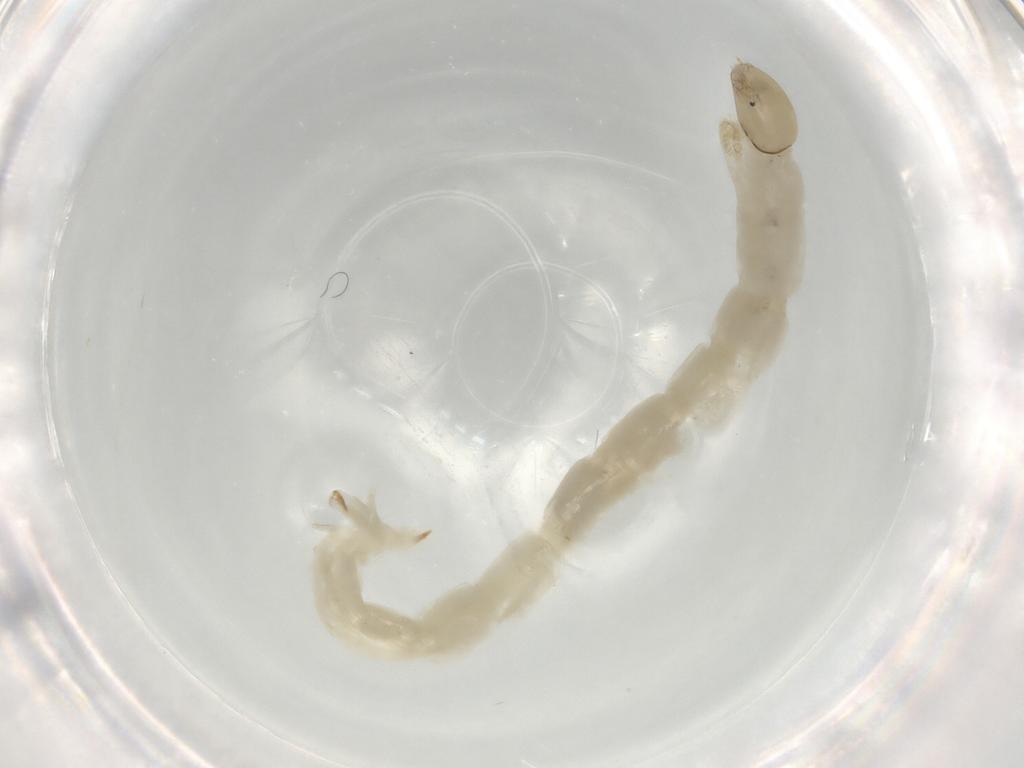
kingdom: Animalia
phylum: Arthropoda
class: Insecta
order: Diptera
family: Chironomidae
